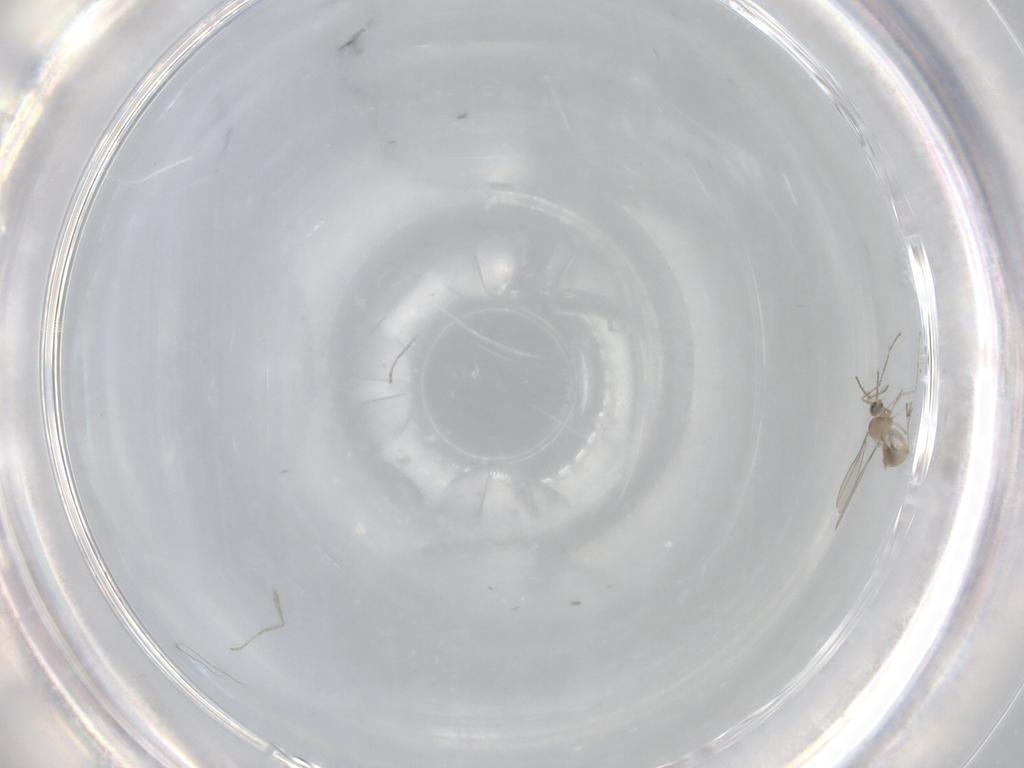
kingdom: Animalia
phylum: Arthropoda
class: Insecta
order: Diptera
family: Cecidomyiidae
